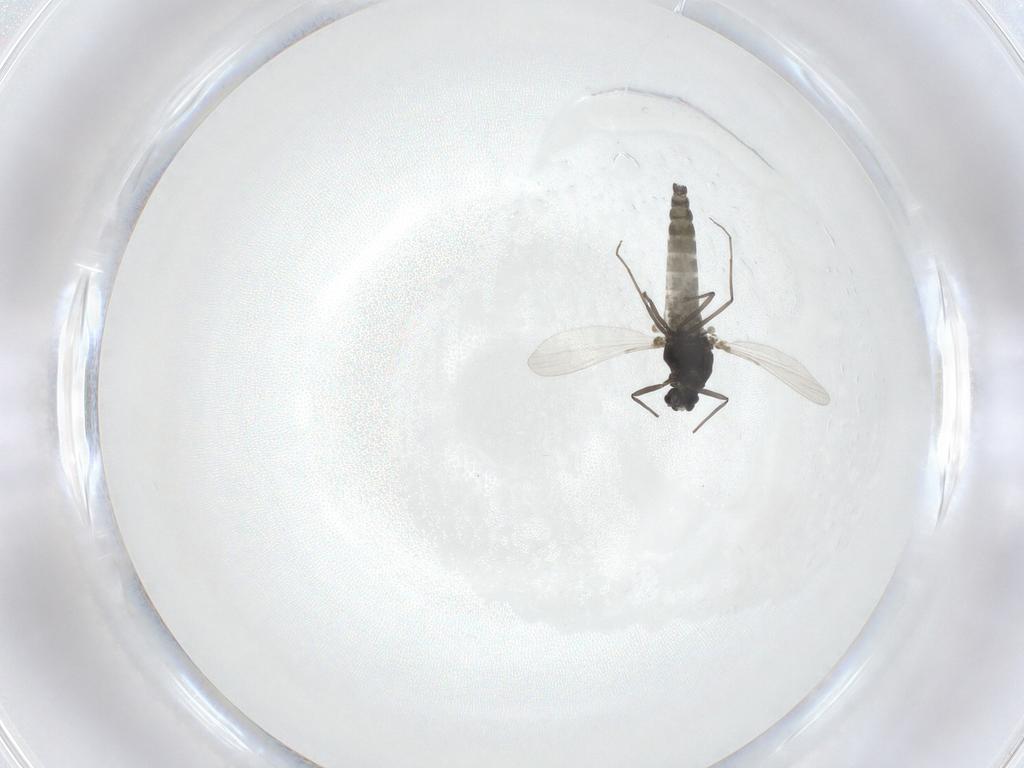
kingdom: Animalia
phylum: Arthropoda
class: Insecta
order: Diptera
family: Chironomidae
